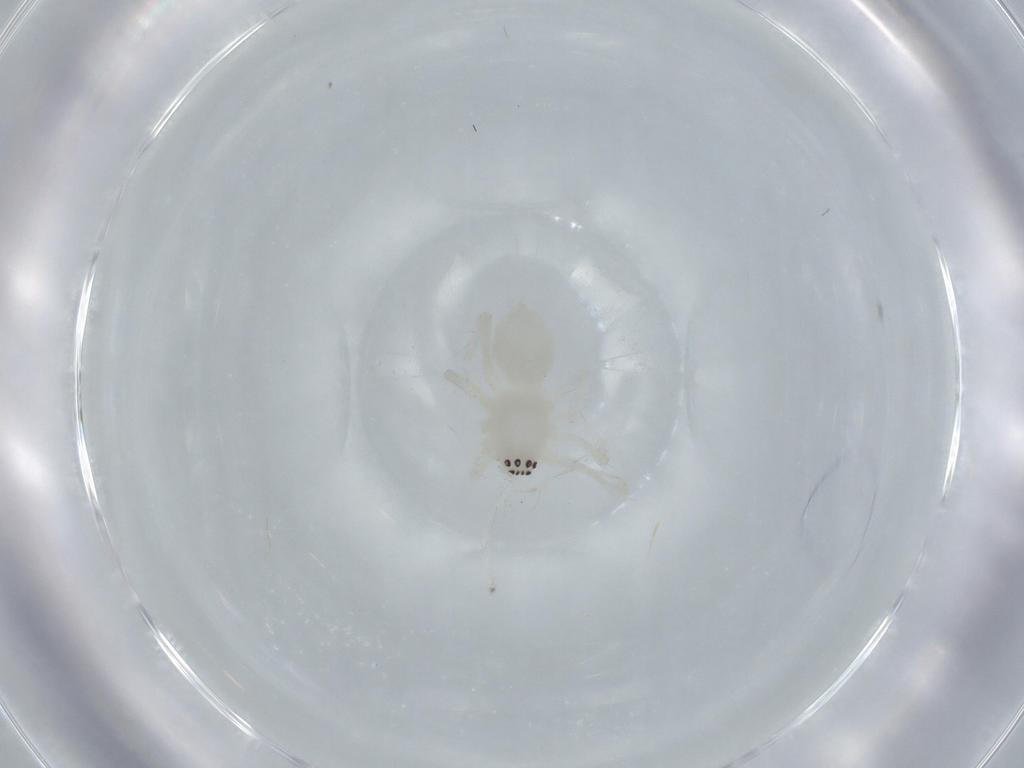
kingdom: Animalia
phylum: Arthropoda
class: Arachnida
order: Araneae
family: Anyphaenidae
